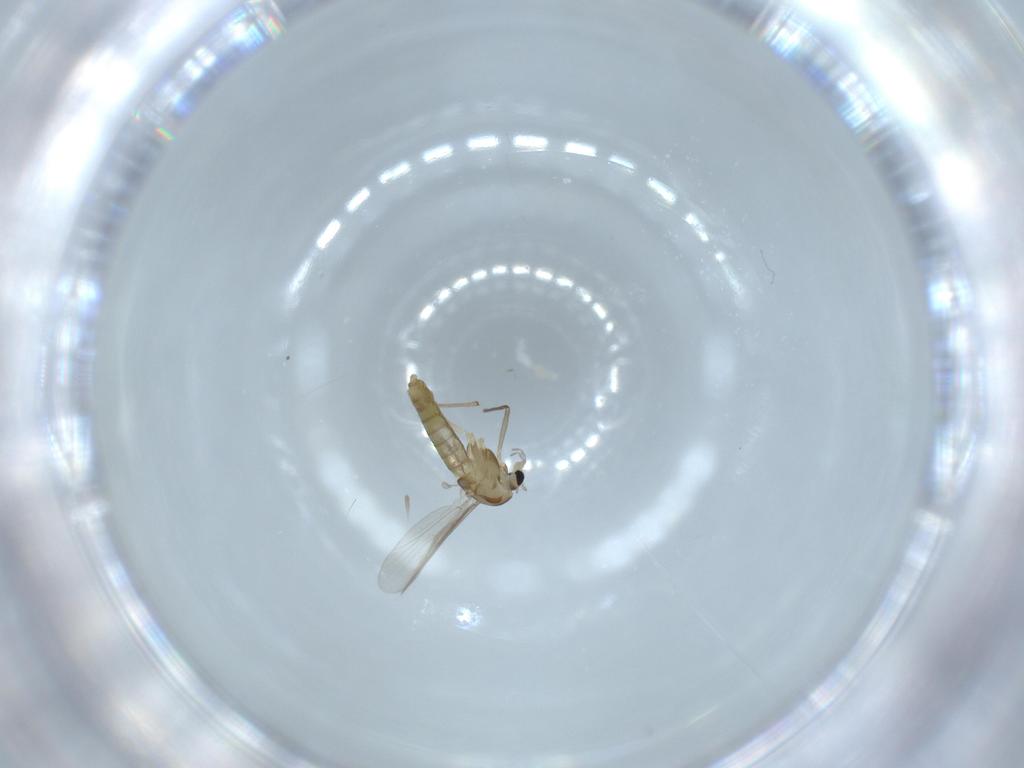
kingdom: Animalia
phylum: Arthropoda
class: Insecta
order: Diptera
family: Chironomidae
